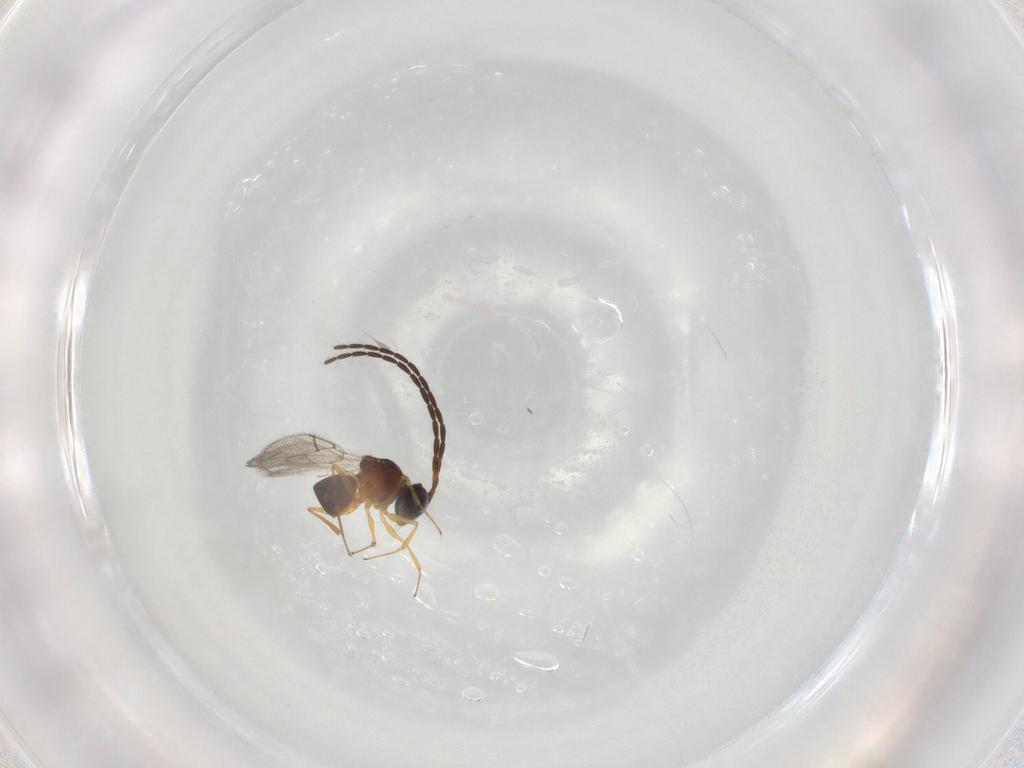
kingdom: Animalia
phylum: Arthropoda
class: Insecta
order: Hymenoptera
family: Figitidae
